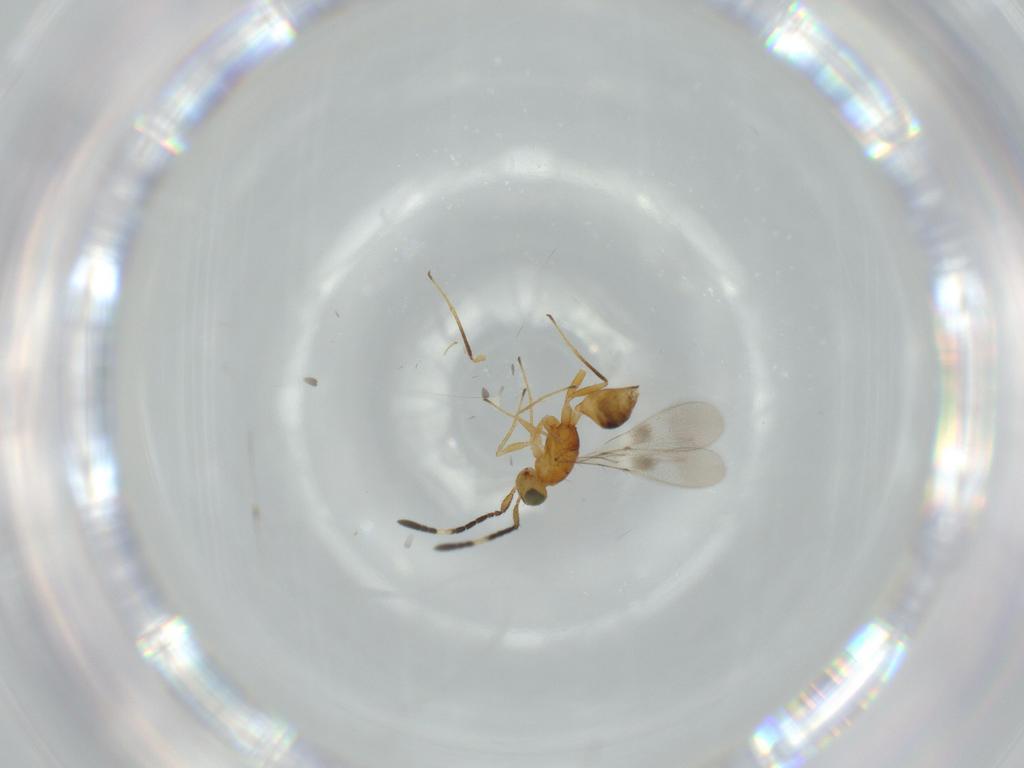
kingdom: Animalia
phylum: Arthropoda
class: Insecta
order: Hymenoptera
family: Mymaridae
